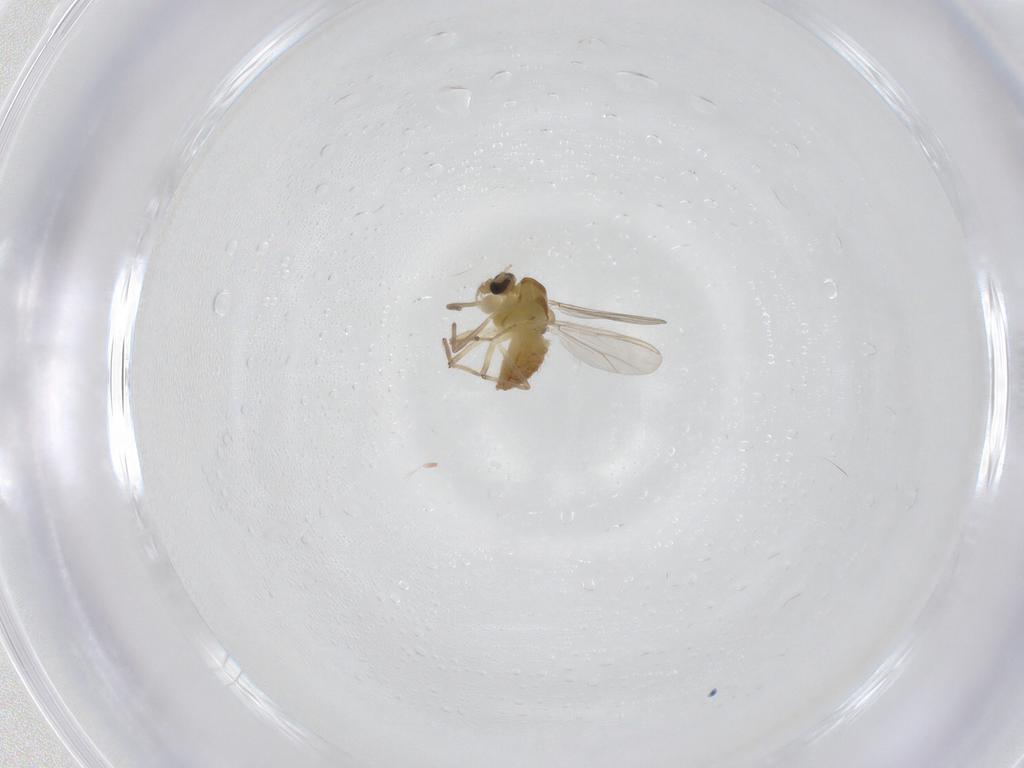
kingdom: Animalia
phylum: Arthropoda
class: Insecta
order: Diptera
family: Chironomidae
